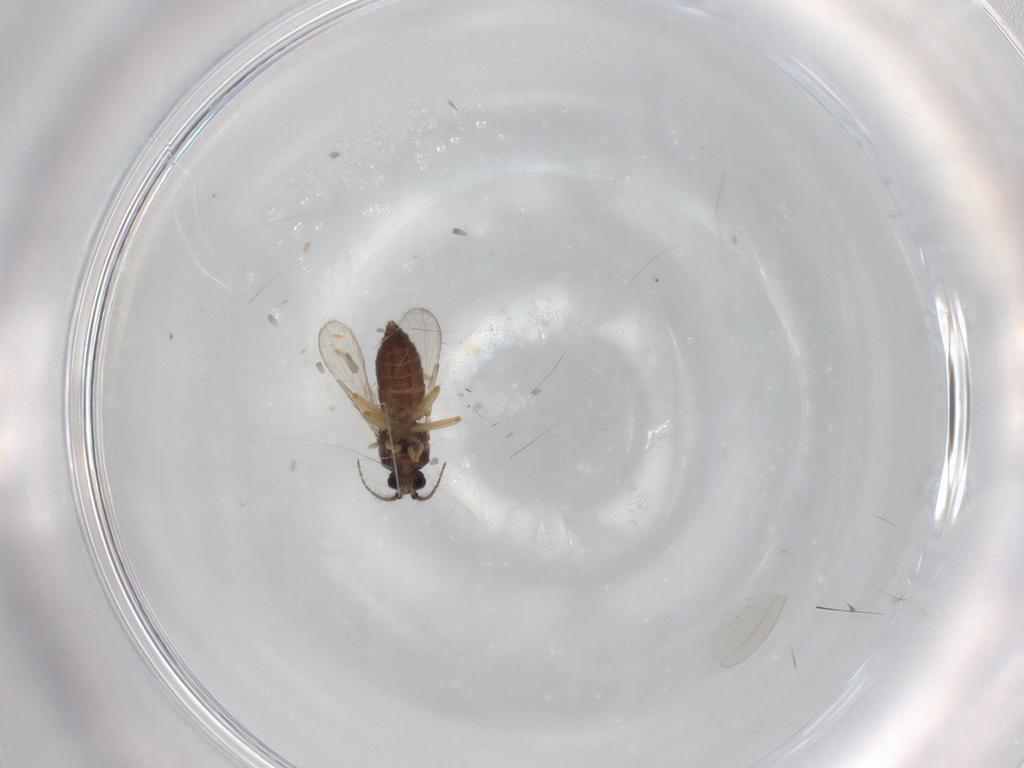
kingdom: Animalia
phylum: Arthropoda
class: Insecta
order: Diptera
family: Ceratopogonidae
